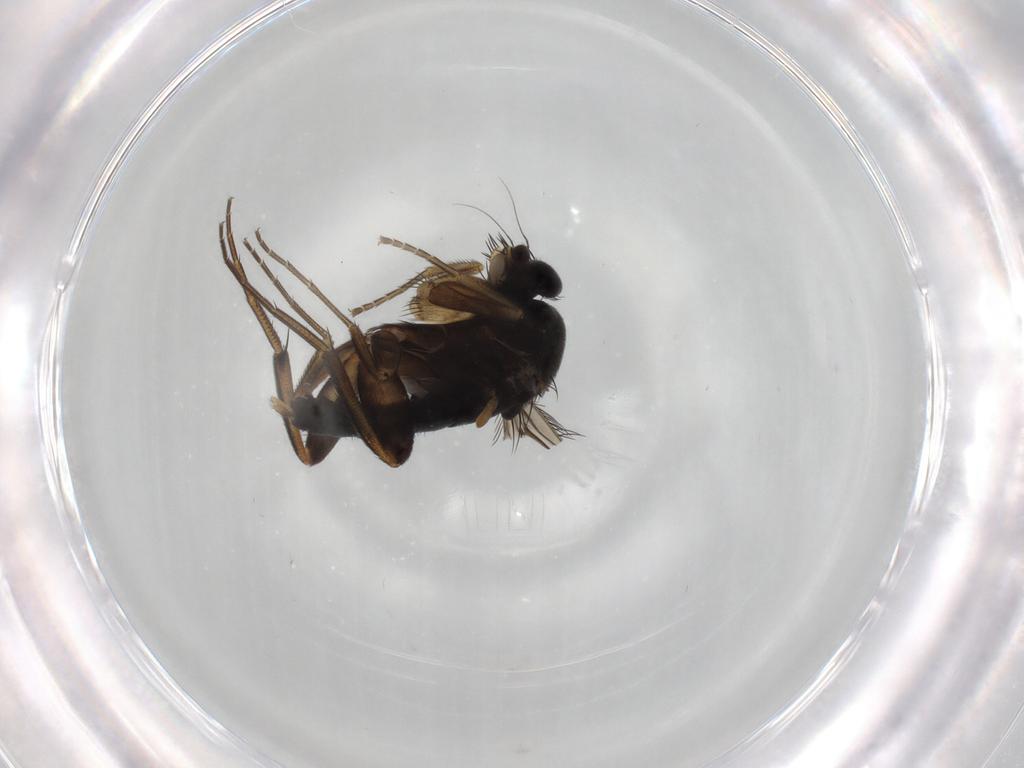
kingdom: Animalia
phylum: Arthropoda
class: Insecta
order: Diptera
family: Phoridae
